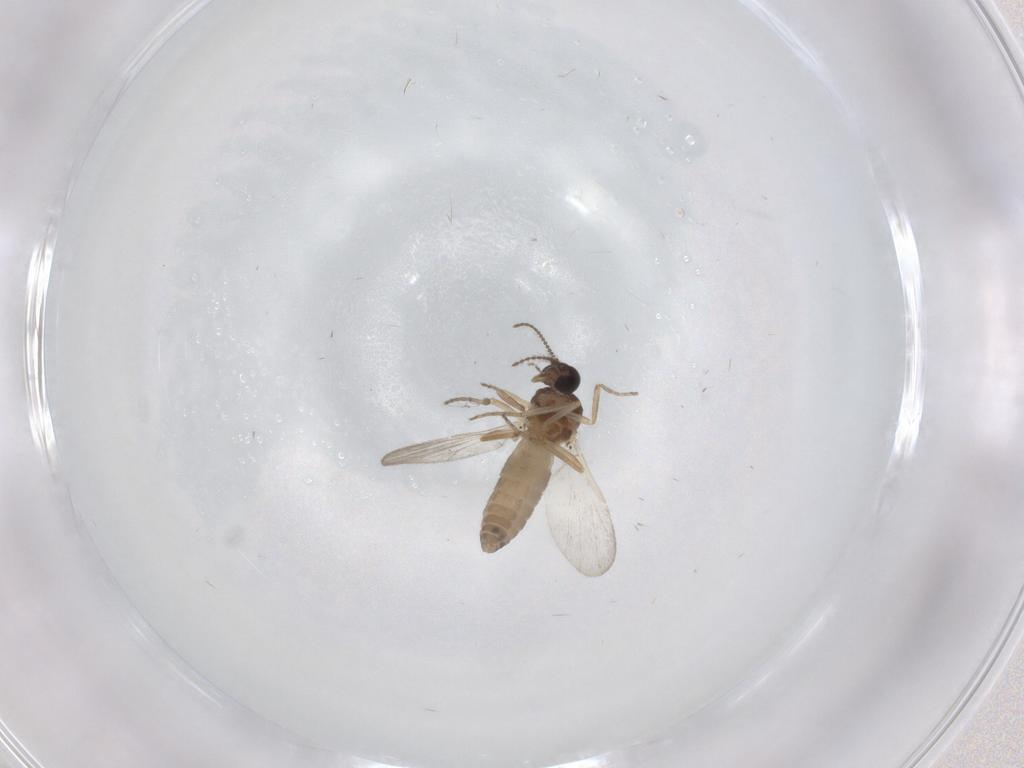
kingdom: Animalia
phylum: Arthropoda
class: Insecta
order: Diptera
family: Ceratopogonidae
